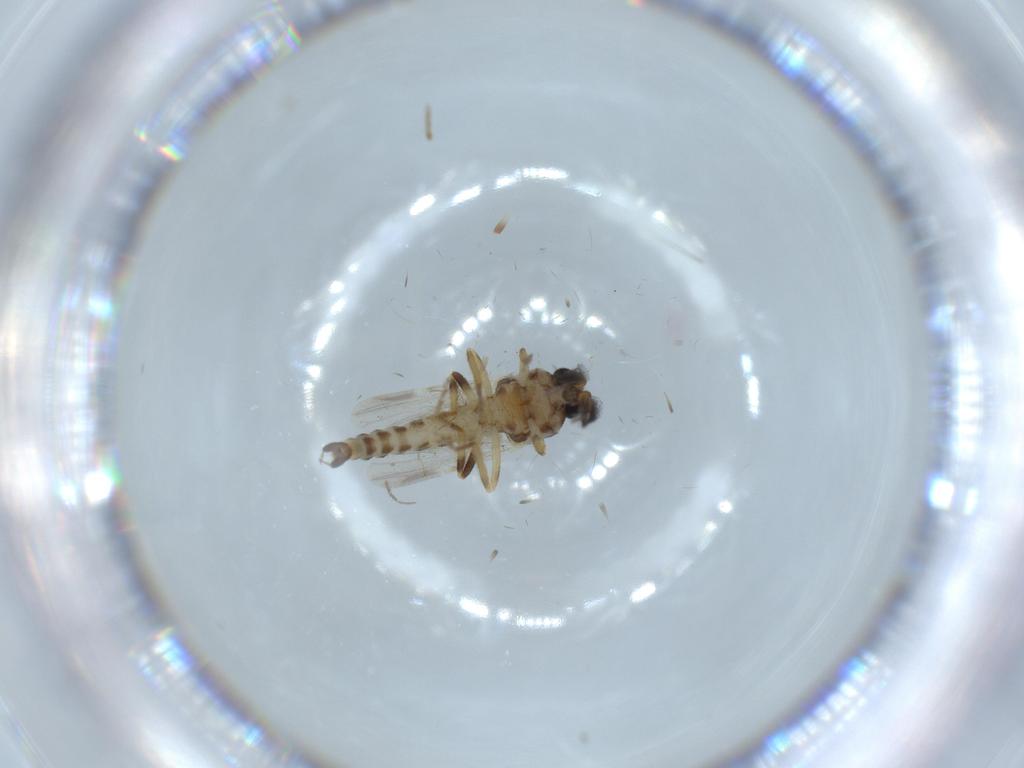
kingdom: Animalia
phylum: Arthropoda
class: Insecta
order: Diptera
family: Ceratopogonidae
